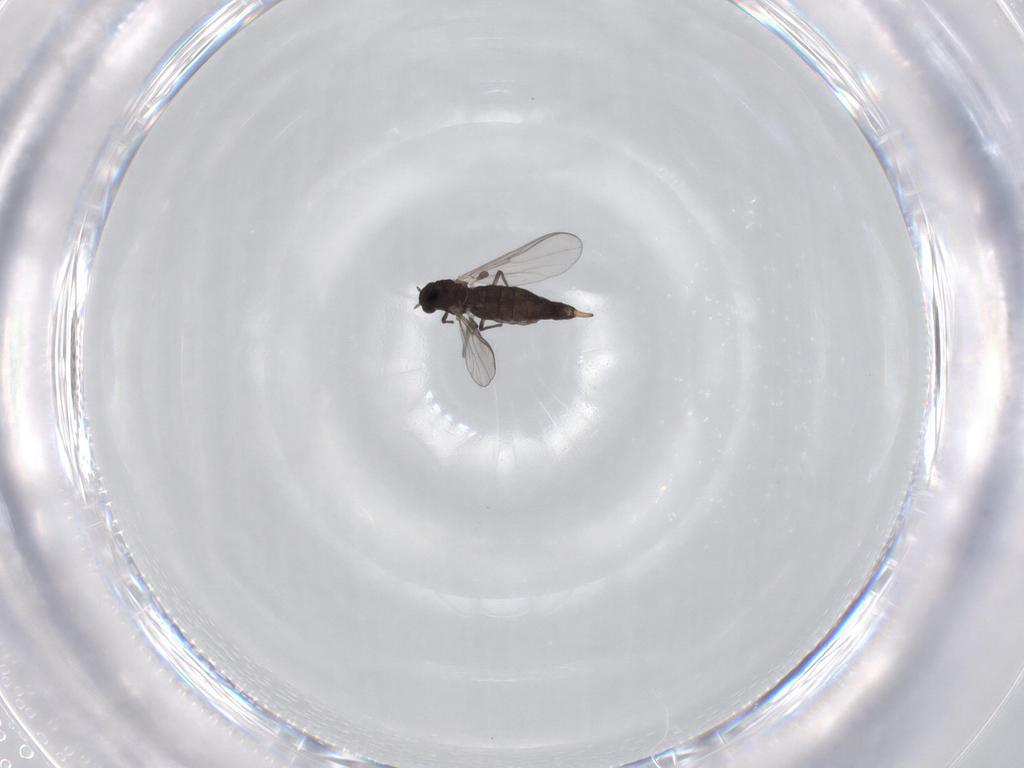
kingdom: Animalia
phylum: Arthropoda
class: Insecta
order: Diptera
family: Chironomidae
